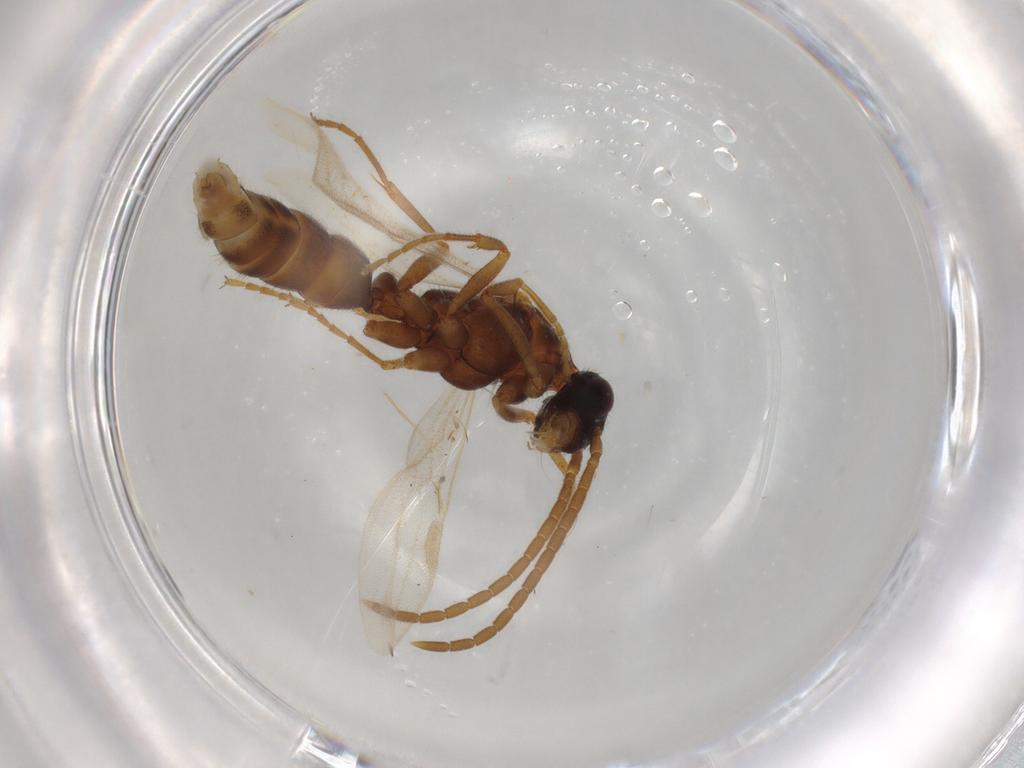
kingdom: Animalia
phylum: Arthropoda
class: Insecta
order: Hymenoptera
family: Formicidae
